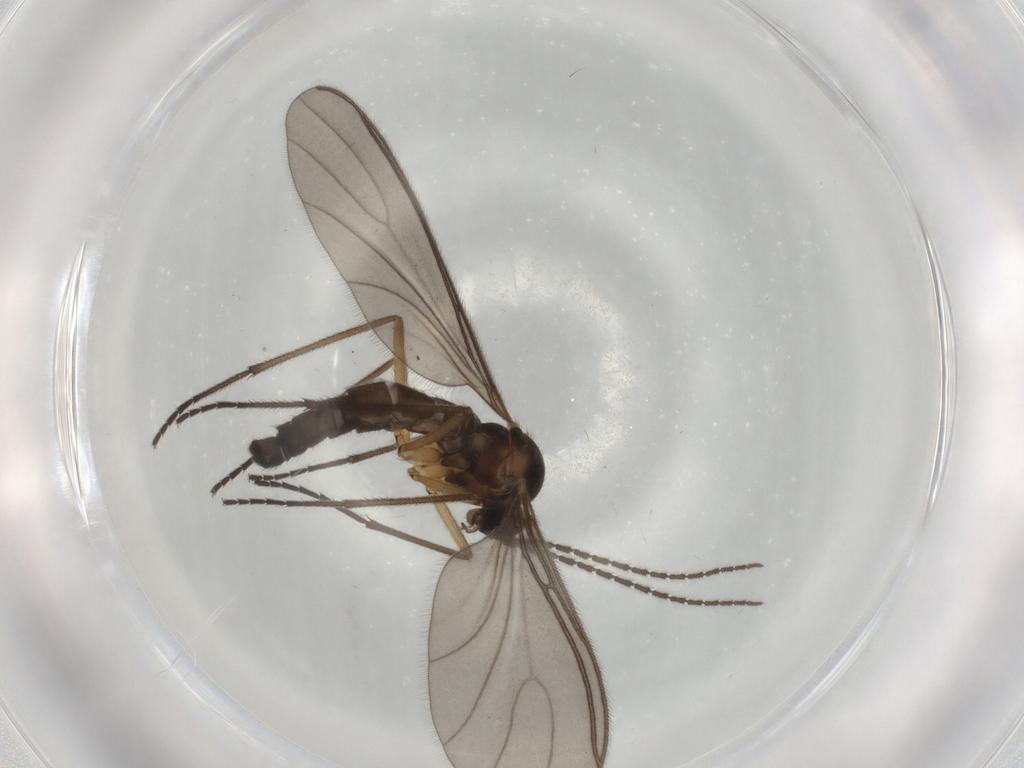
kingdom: Animalia
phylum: Arthropoda
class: Insecta
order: Diptera
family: Sciaridae
